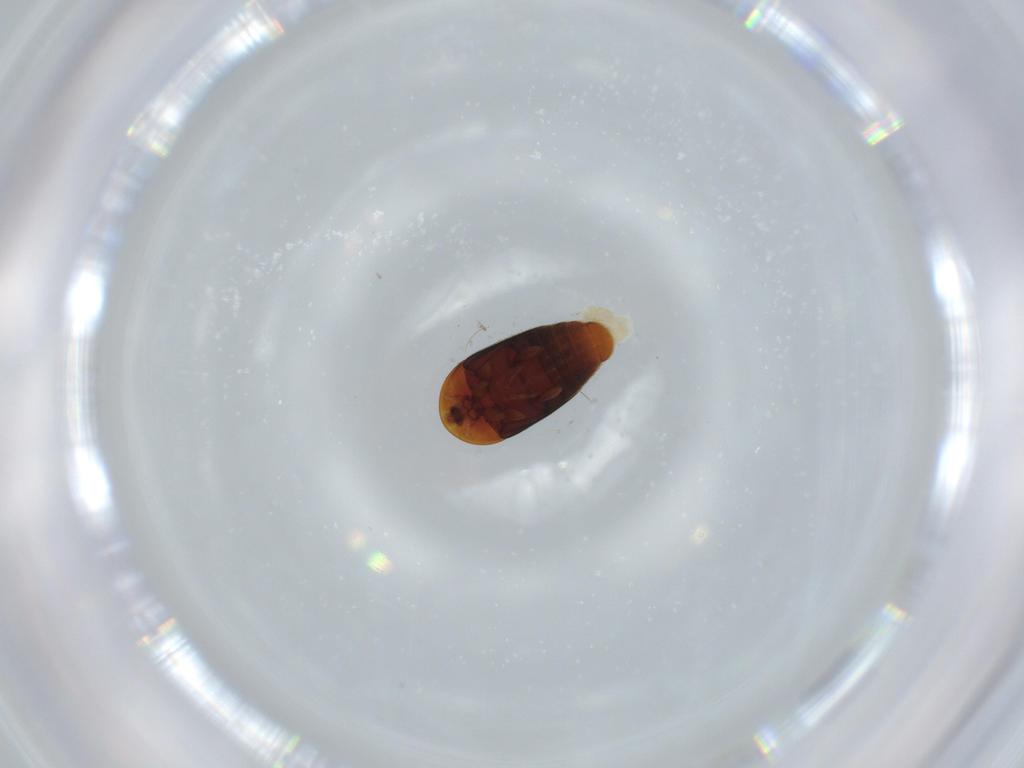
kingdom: Animalia
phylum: Arthropoda
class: Insecta
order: Coleoptera
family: Corylophidae
